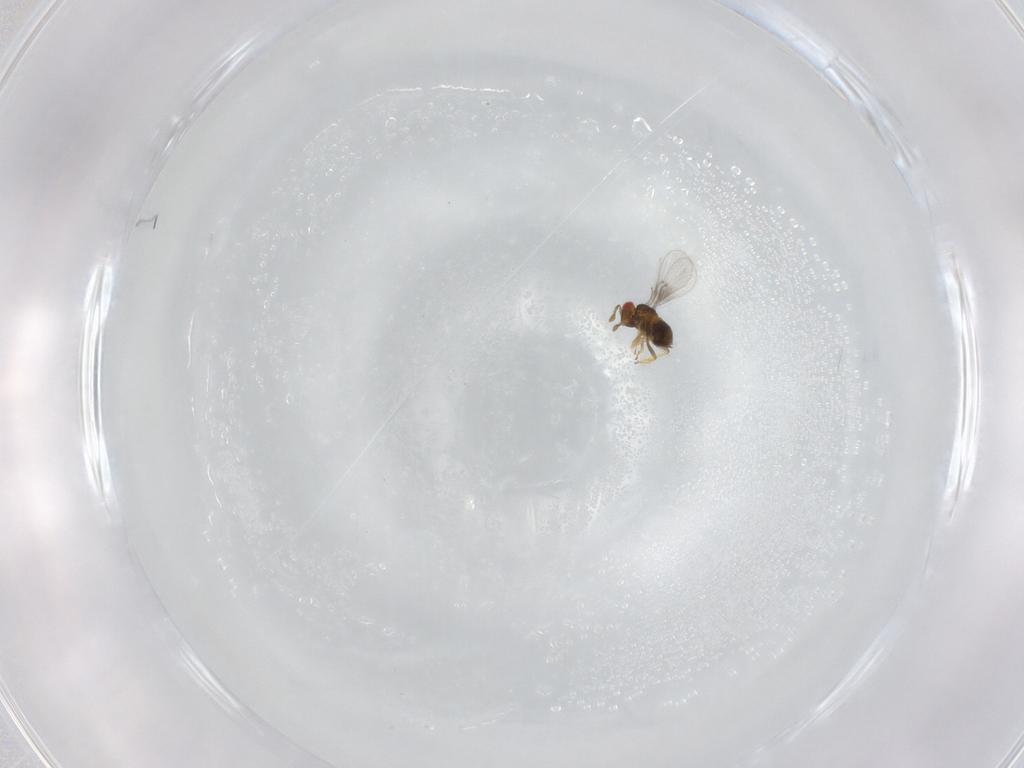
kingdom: Animalia
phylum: Arthropoda
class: Insecta
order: Hymenoptera
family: Trichogrammatidae
